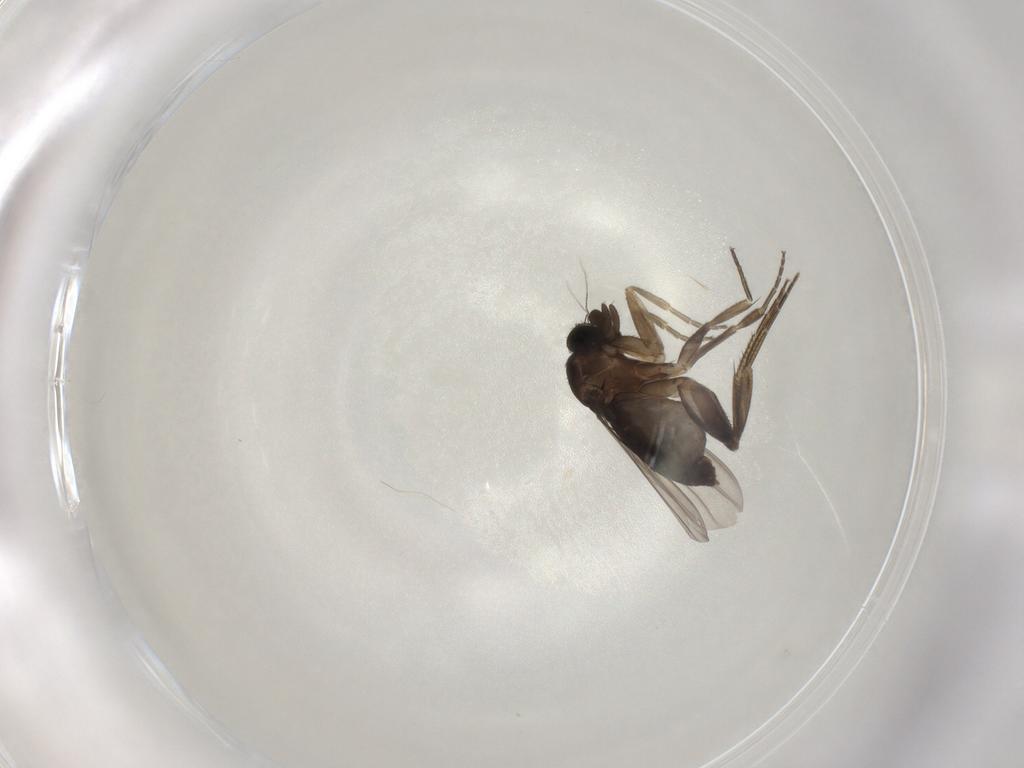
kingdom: Animalia
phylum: Arthropoda
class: Insecta
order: Diptera
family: Phoridae
